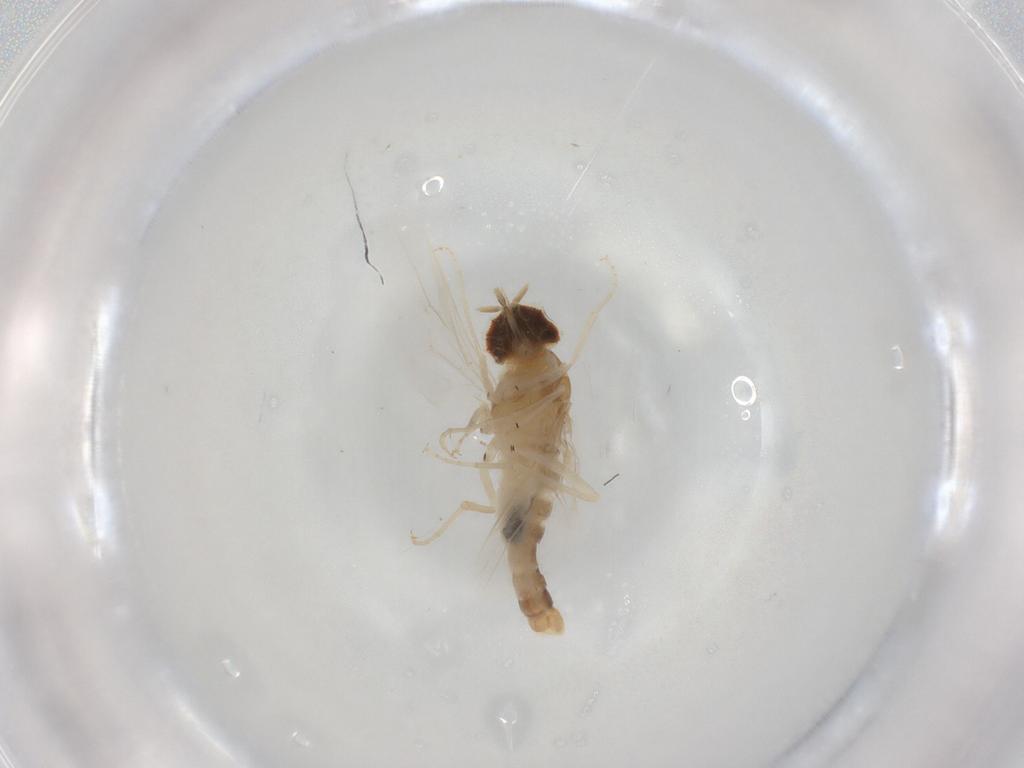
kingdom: Animalia
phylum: Arthropoda
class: Insecta
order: Diptera
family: Scenopinidae
